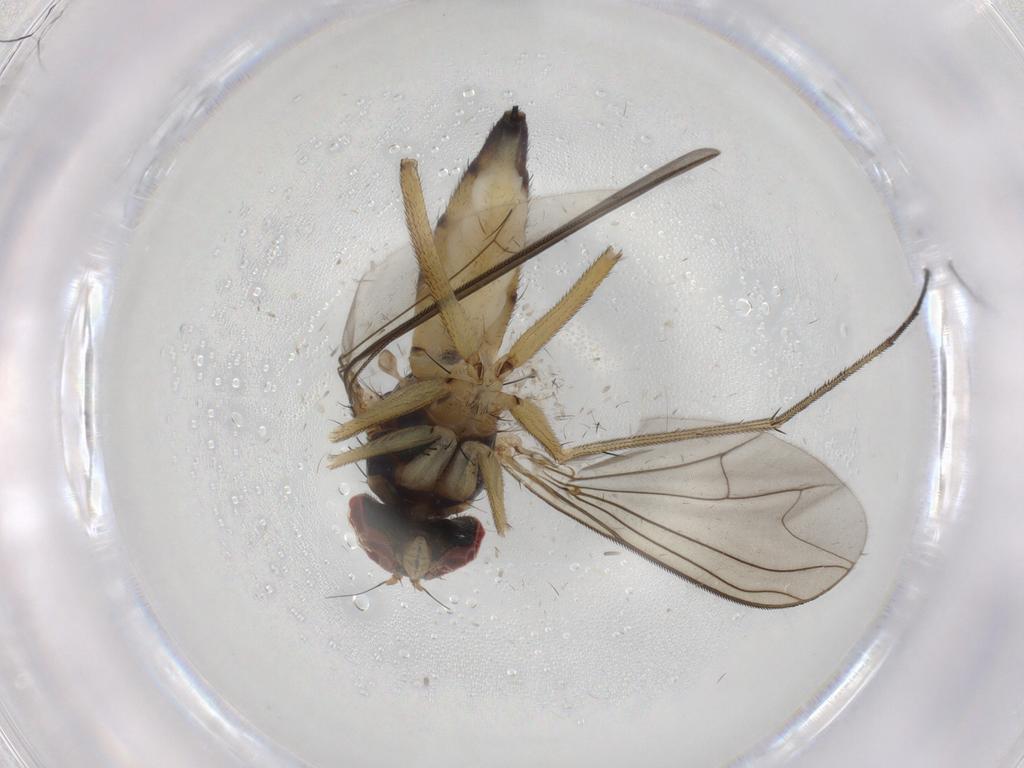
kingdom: Animalia
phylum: Arthropoda
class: Insecta
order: Diptera
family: Dolichopodidae
